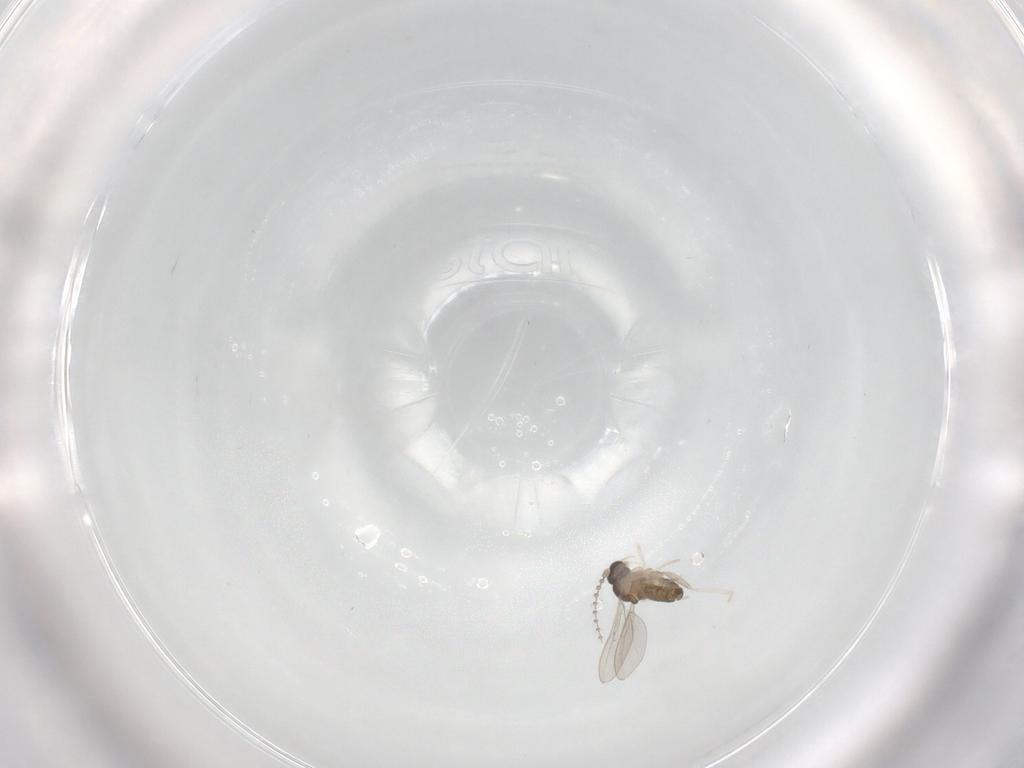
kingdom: Animalia
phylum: Arthropoda
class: Insecta
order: Diptera
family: Cecidomyiidae
